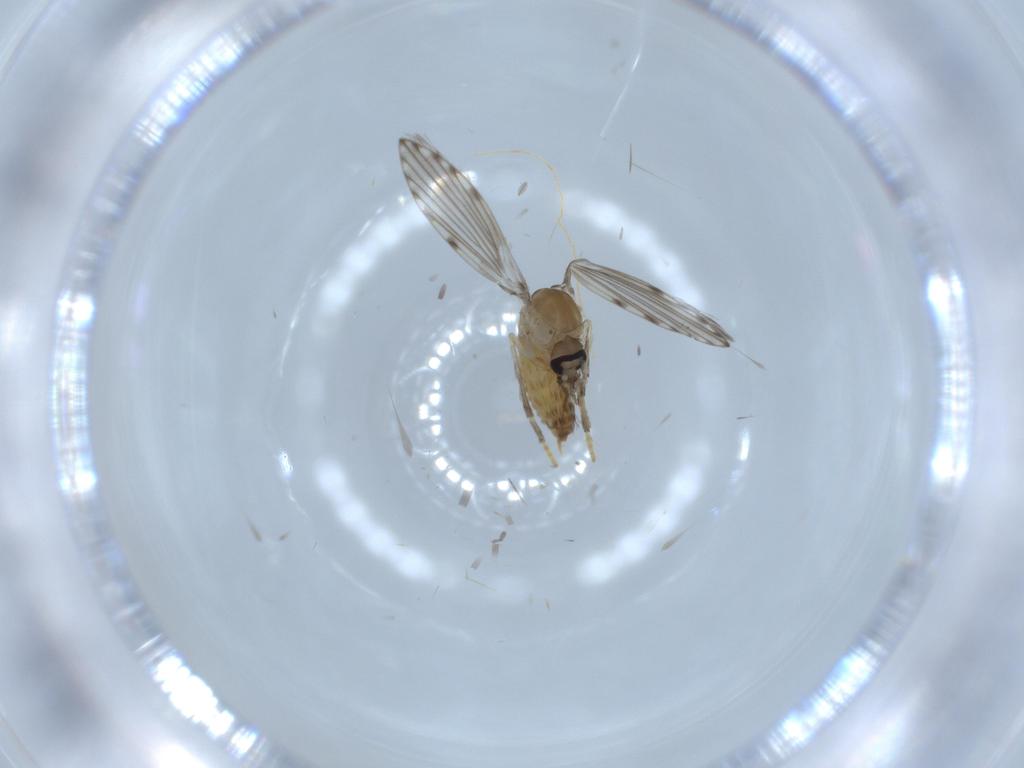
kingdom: Animalia
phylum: Arthropoda
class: Insecta
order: Diptera
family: Psychodidae
